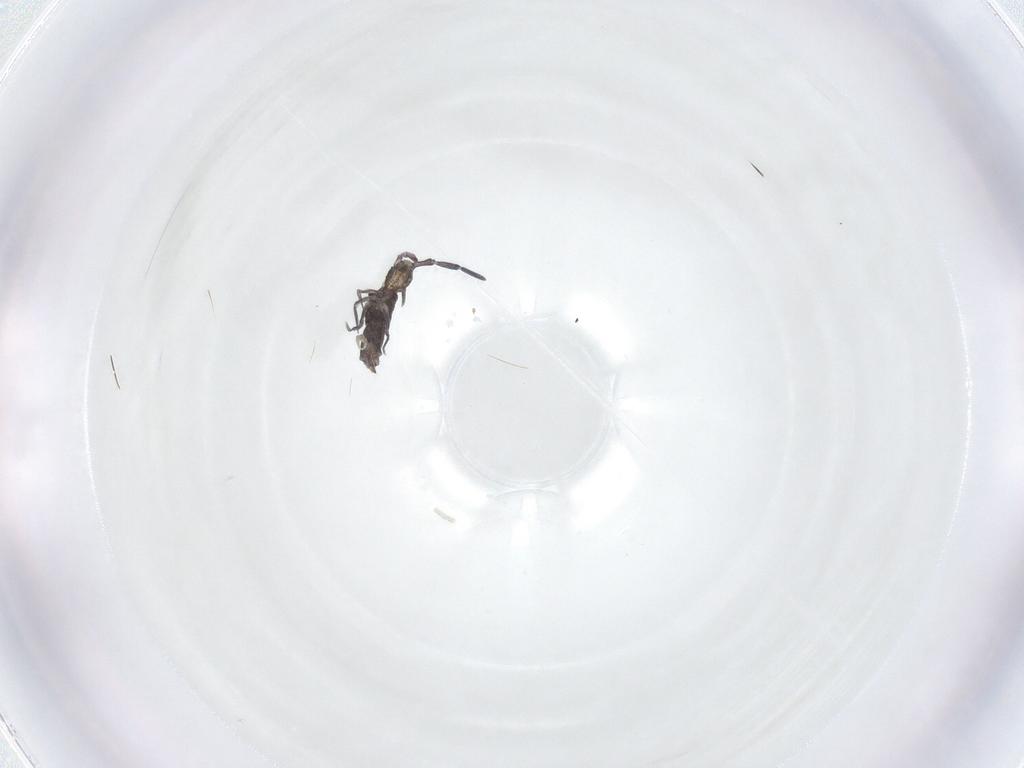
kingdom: Animalia
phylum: Arthropoda
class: Collembola
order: Entomobryomorpha
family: Entomobryidae
